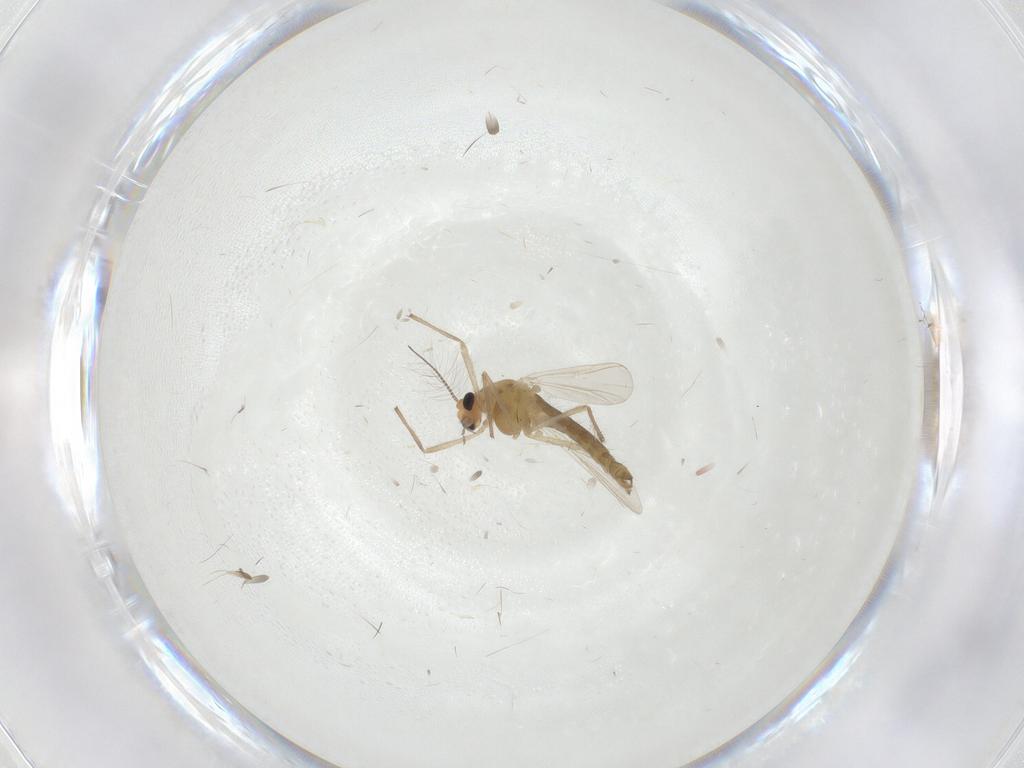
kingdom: Animalia
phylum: Arthropoda
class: Insecta
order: Diptera
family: Chironomidae
